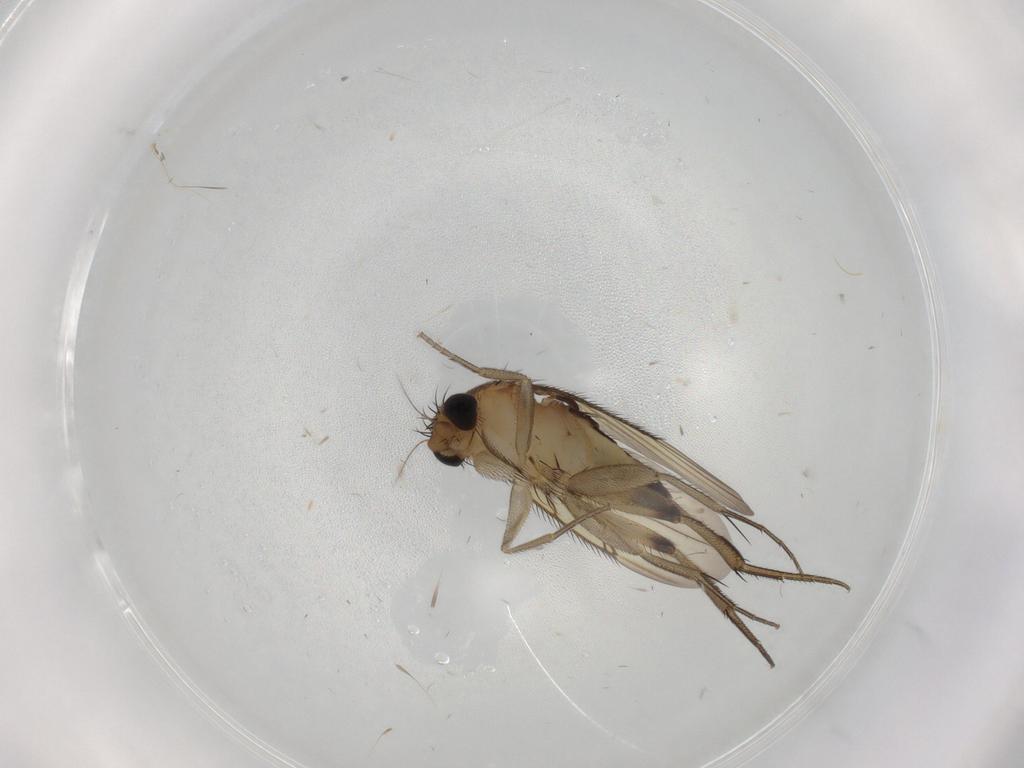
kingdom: Animalia
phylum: Arthropoda
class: Insecta
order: Diptera
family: Phoridae
